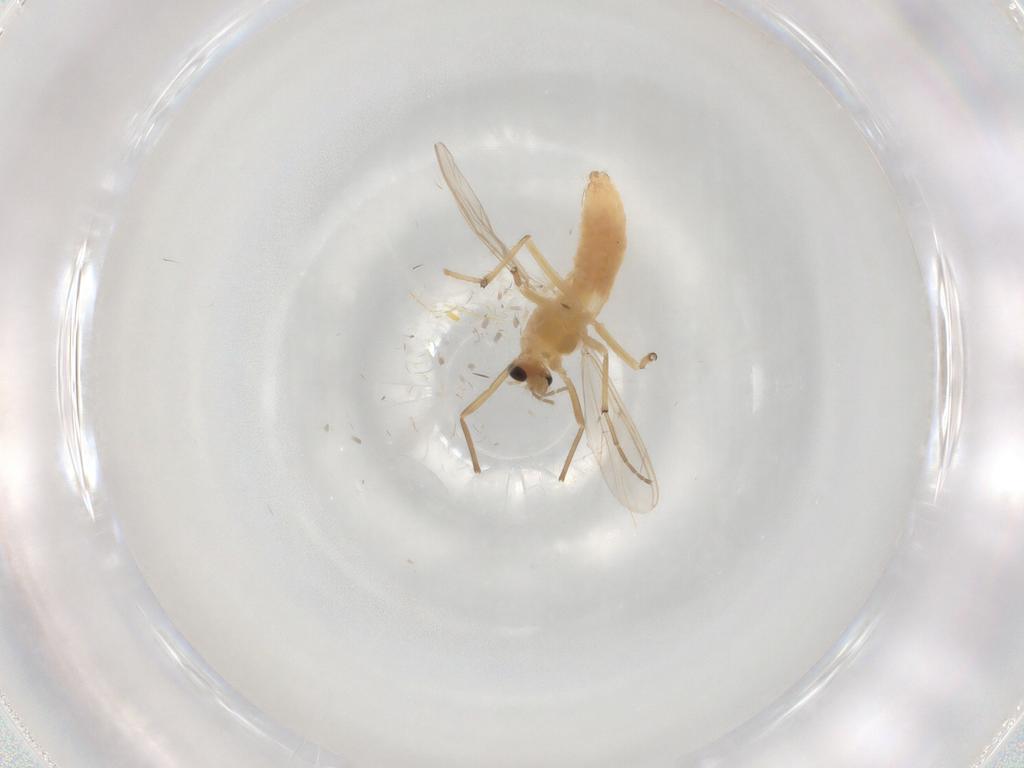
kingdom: Animalia
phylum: Arthropoda
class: Insecta
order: Diptera
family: Chironomidae
